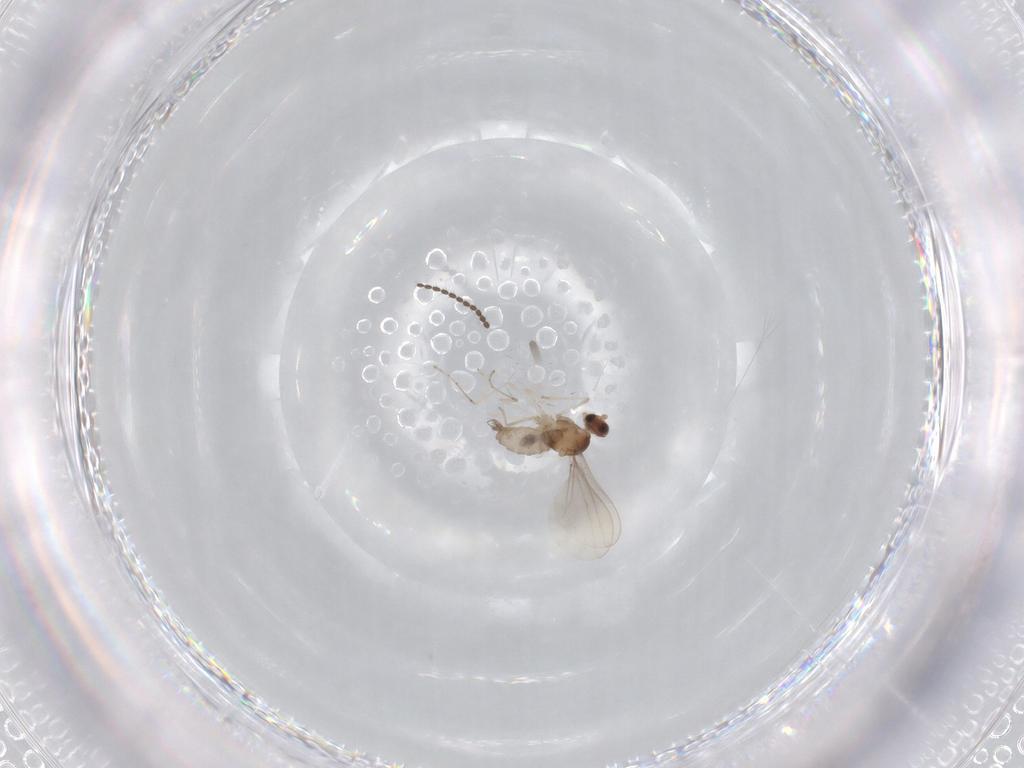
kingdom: Animalia
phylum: Arthropoda
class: Insecta
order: Diptera
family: Cecidomyiidae
